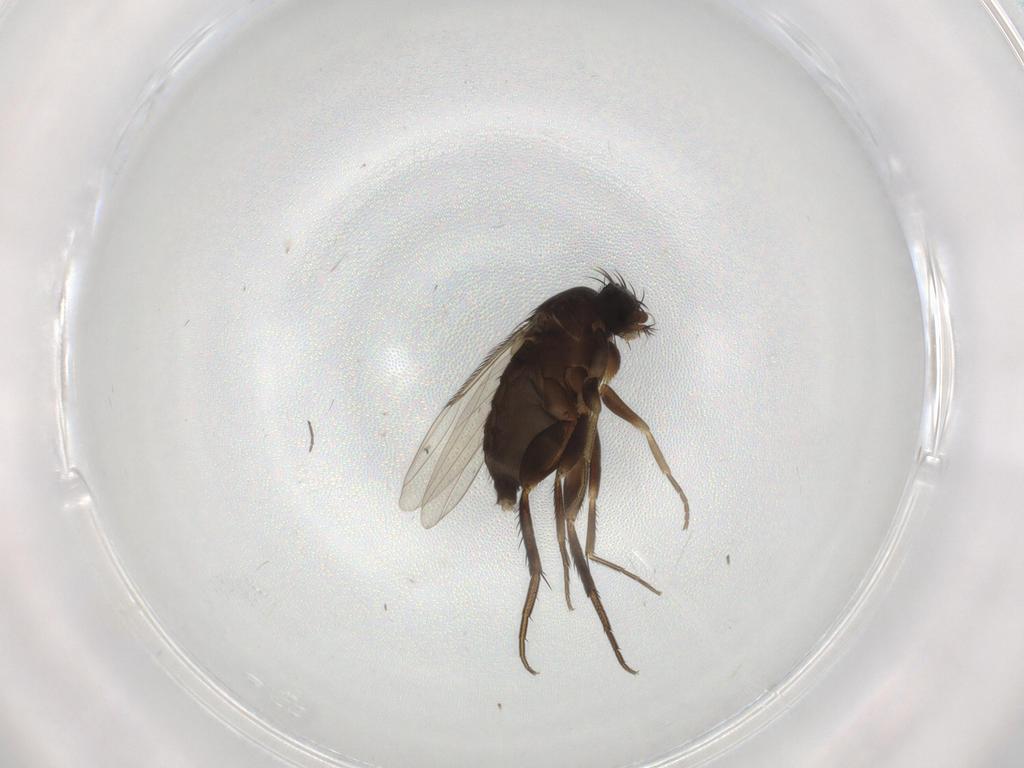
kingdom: Animalia
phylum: Arthropoda
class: Insecta
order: Diptera
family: Phoridae
